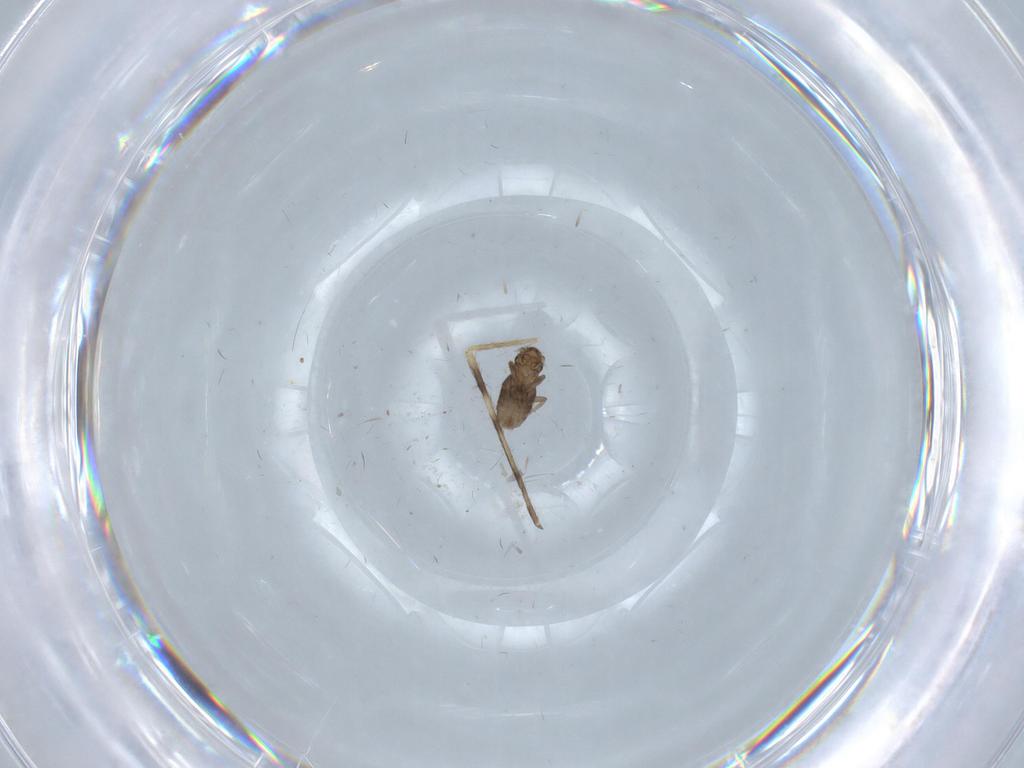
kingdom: Animalia
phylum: Arthropoda
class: Insecta
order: Diptera
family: Limoniidae
